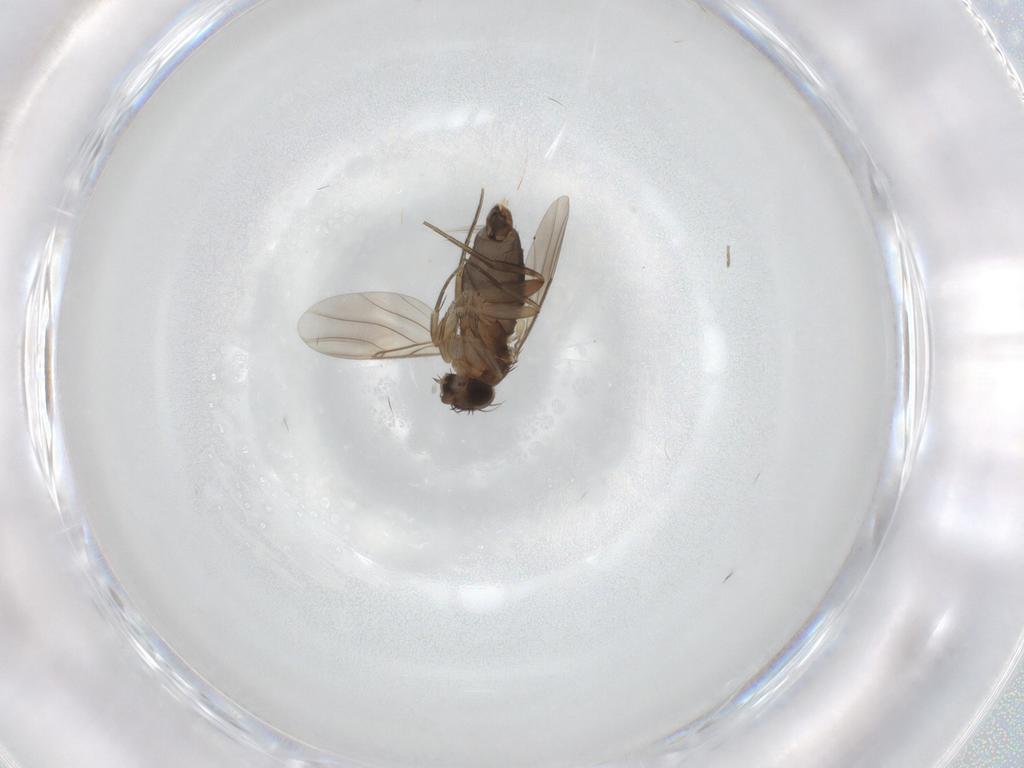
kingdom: Animalia
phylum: Arthropoda
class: Insecta
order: Diptera
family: Phoridae
